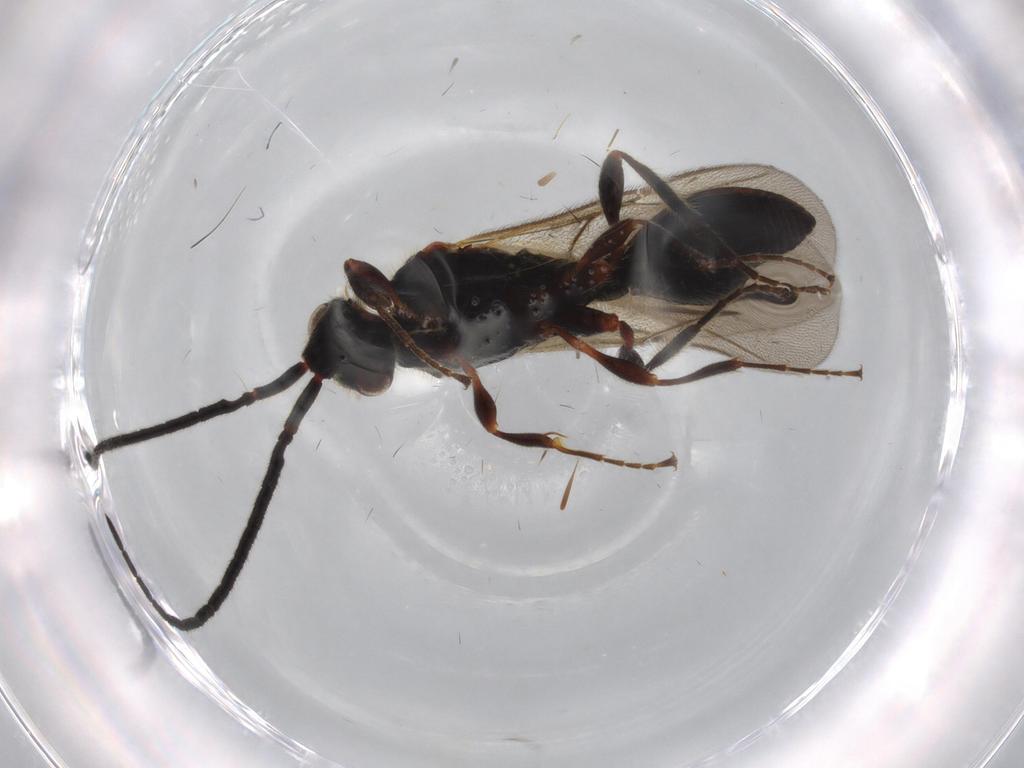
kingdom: Animalia
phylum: Arthropoda
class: Insecta
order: Hymenoptera
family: Diapriidae
